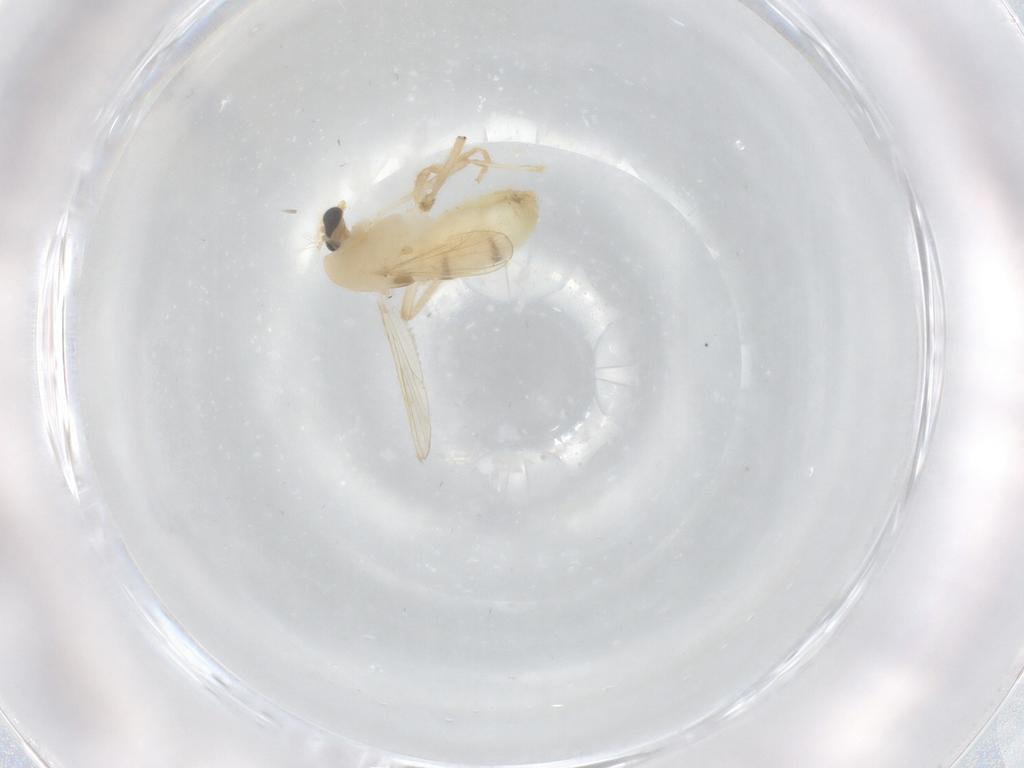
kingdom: Animalia
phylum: Arthropoda
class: Insecta
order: Diptera
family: Chironomidae
